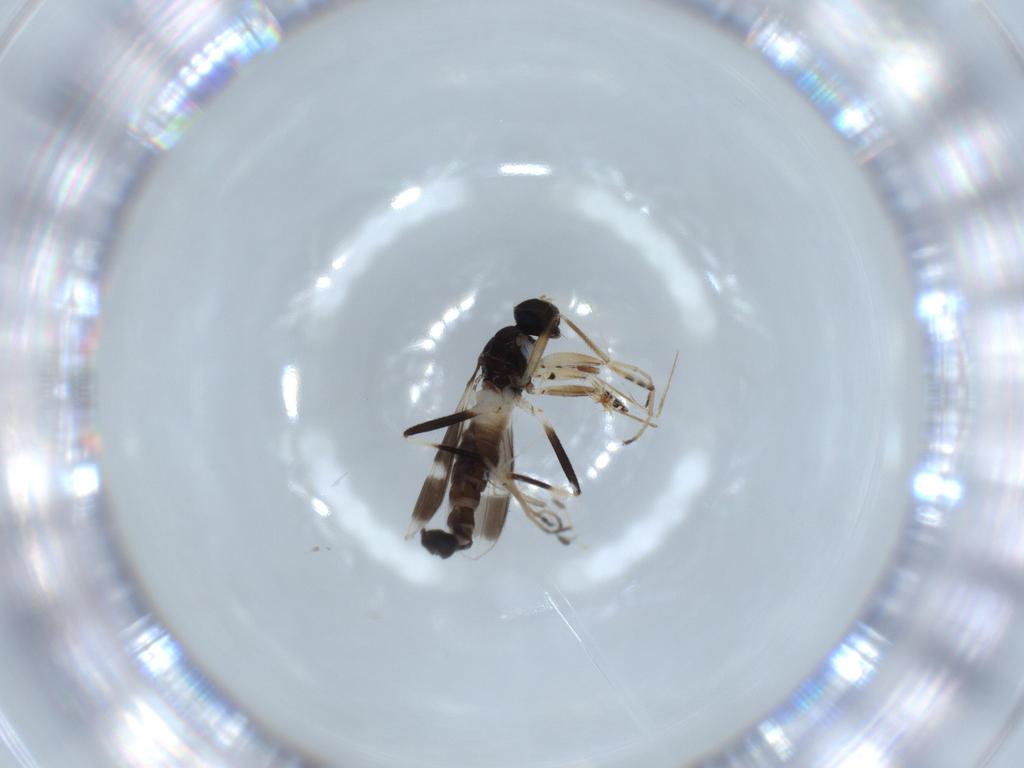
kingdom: Animalia
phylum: Arthropoda
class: Insecta
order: Diptera
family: Hybotidae
